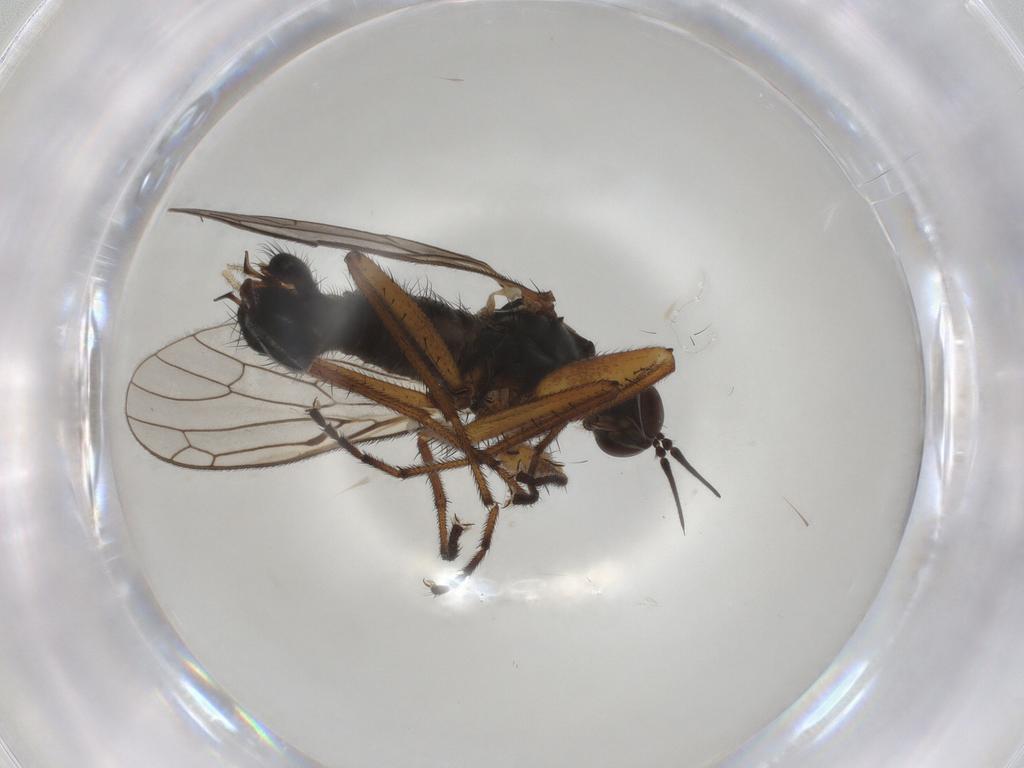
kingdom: Animalia
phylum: Arthropoda
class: Insecta
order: Diptera
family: Empididae
